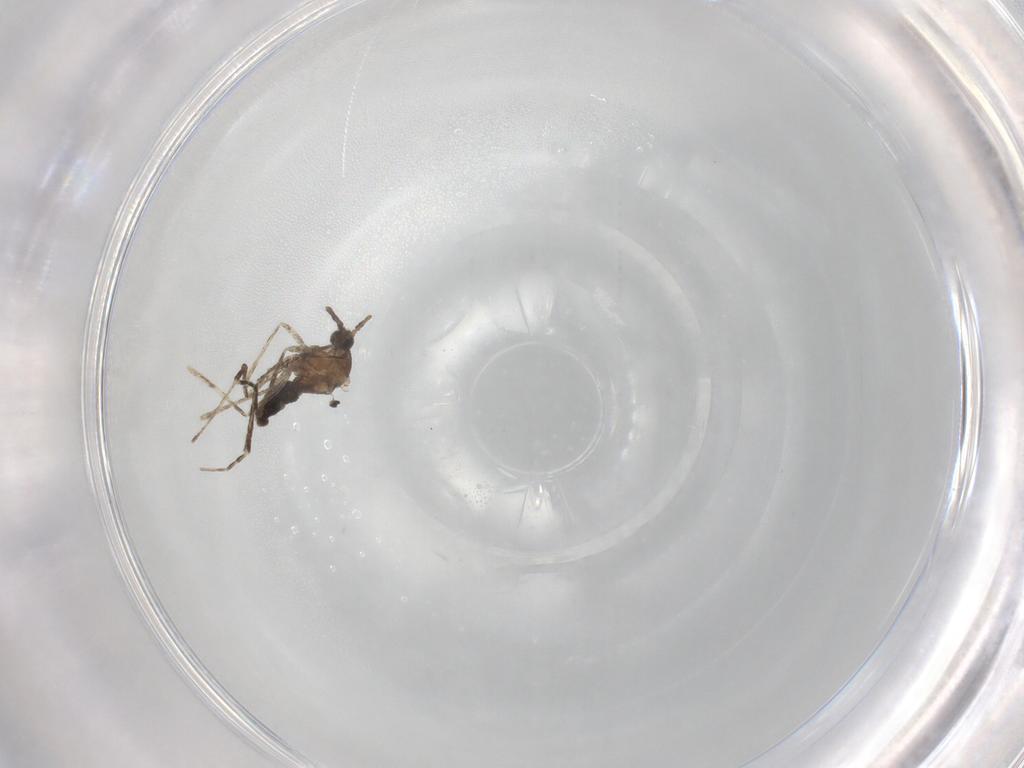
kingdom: Animalia
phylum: Arthropoda
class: Insecta
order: Diptera
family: Cecidomyiidae
